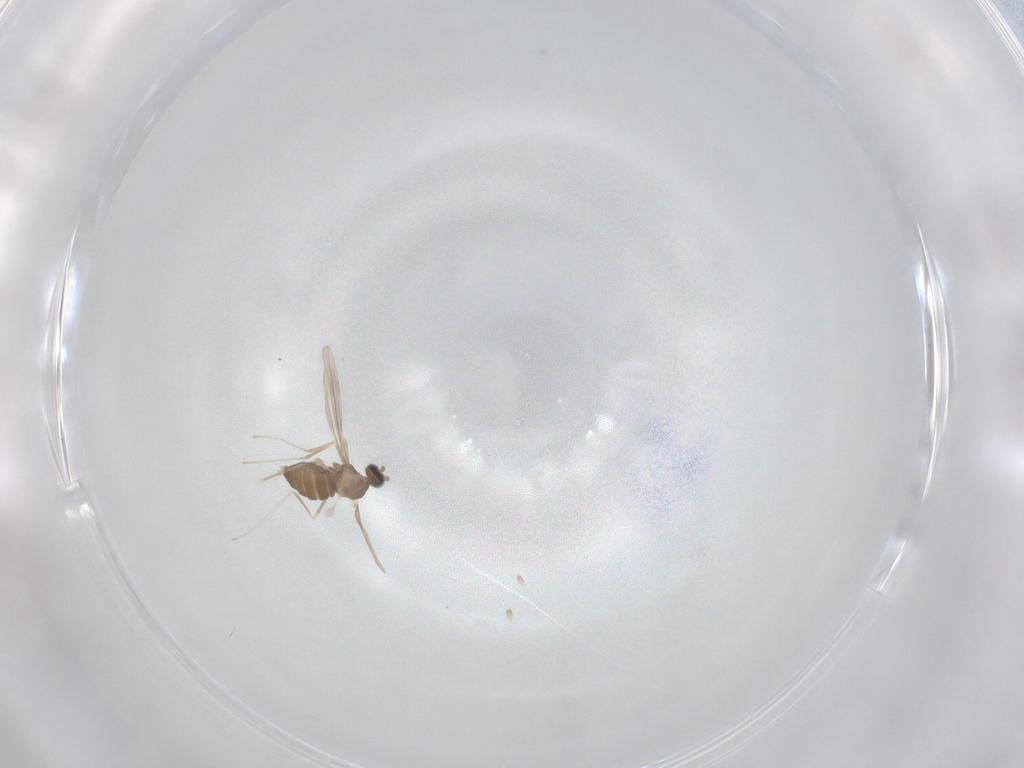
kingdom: Animalia
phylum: Arthropoda
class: Insecta
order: Diptera
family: Cecidomyiidae
